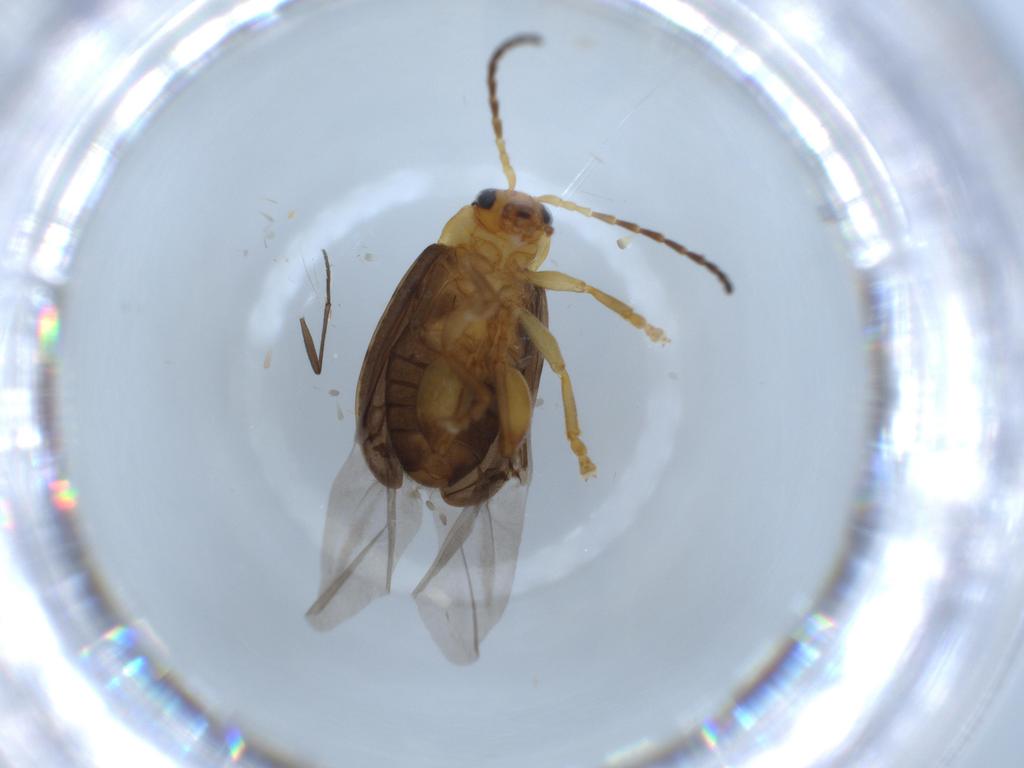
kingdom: Animalia
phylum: Arthropoda
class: Insecta
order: Coleoptera
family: Chrysomelidae
